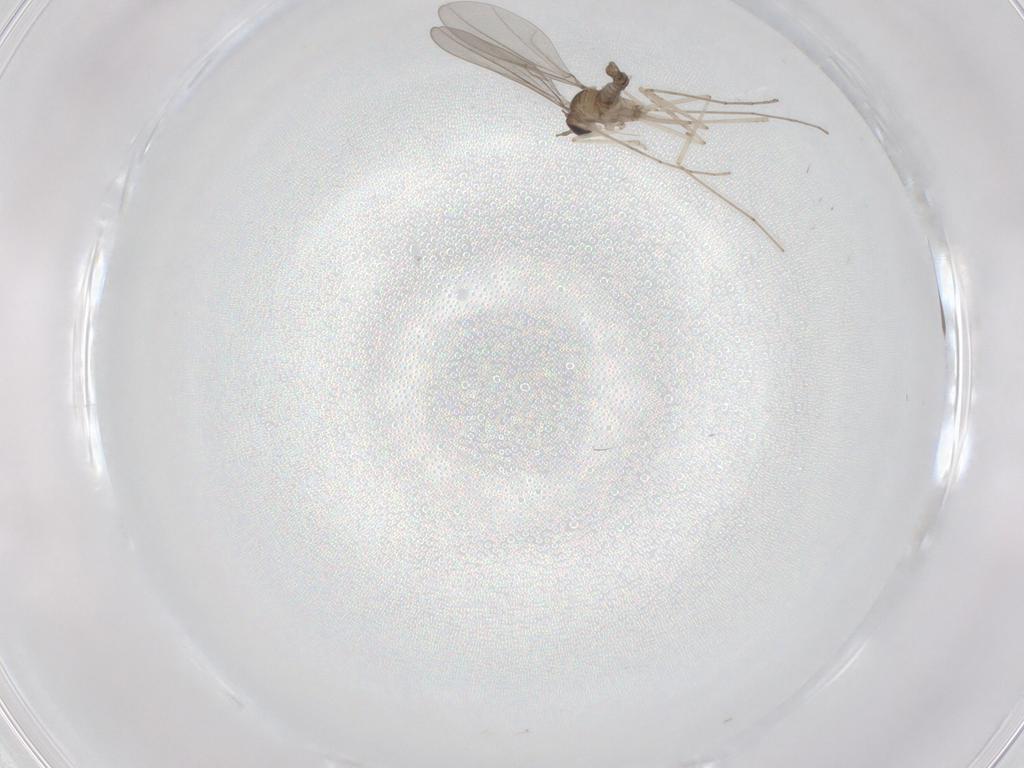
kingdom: Animalia
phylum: Arthropoda
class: Insecta
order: Diptera
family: Cecidomyiidae
